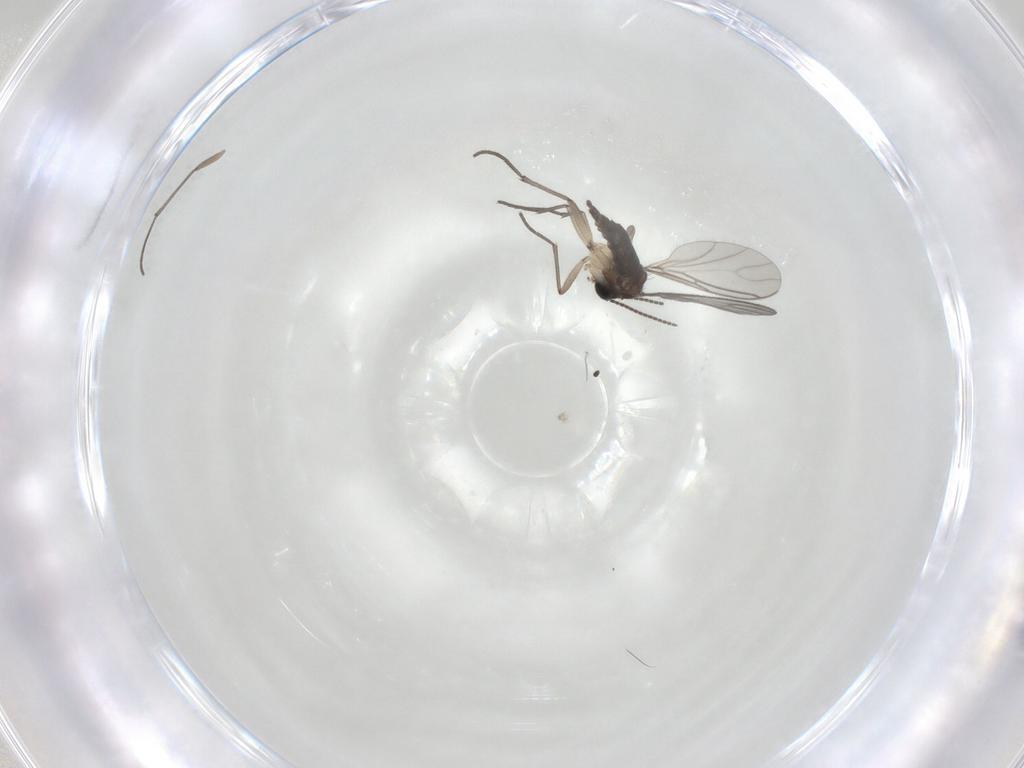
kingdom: Animalia
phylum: Arthropoda
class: Insecta
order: Diptera
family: Sciaridae
